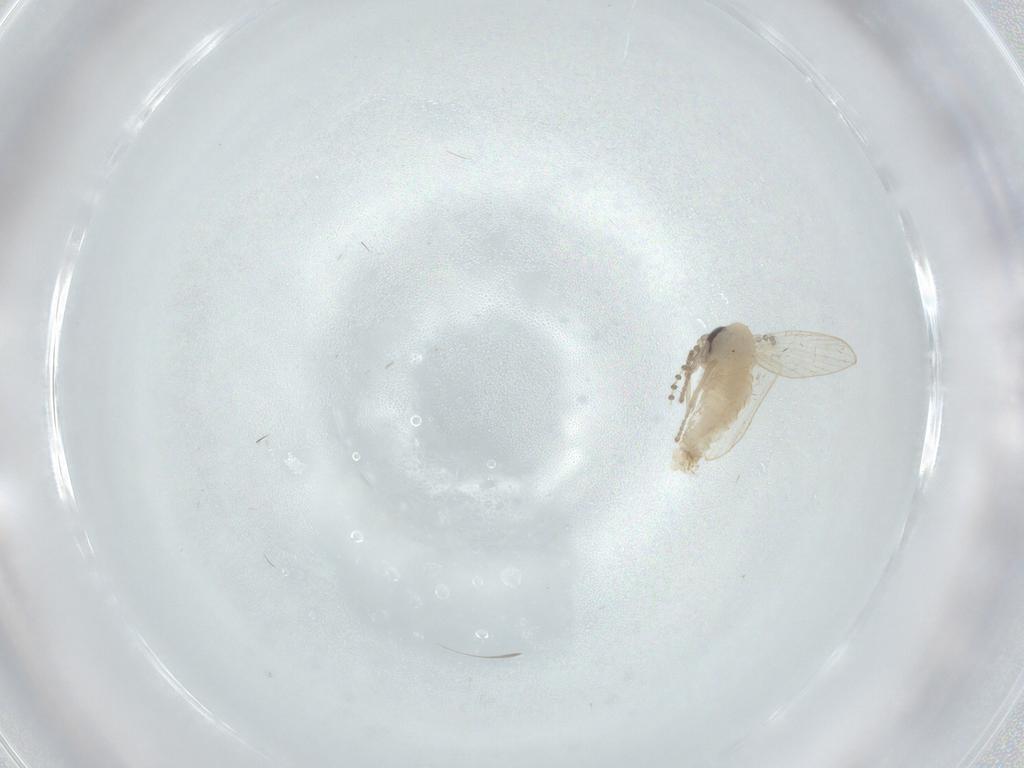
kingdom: Animalia
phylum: Arthropoda
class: Insecta
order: Diptera
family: Psychodidae
